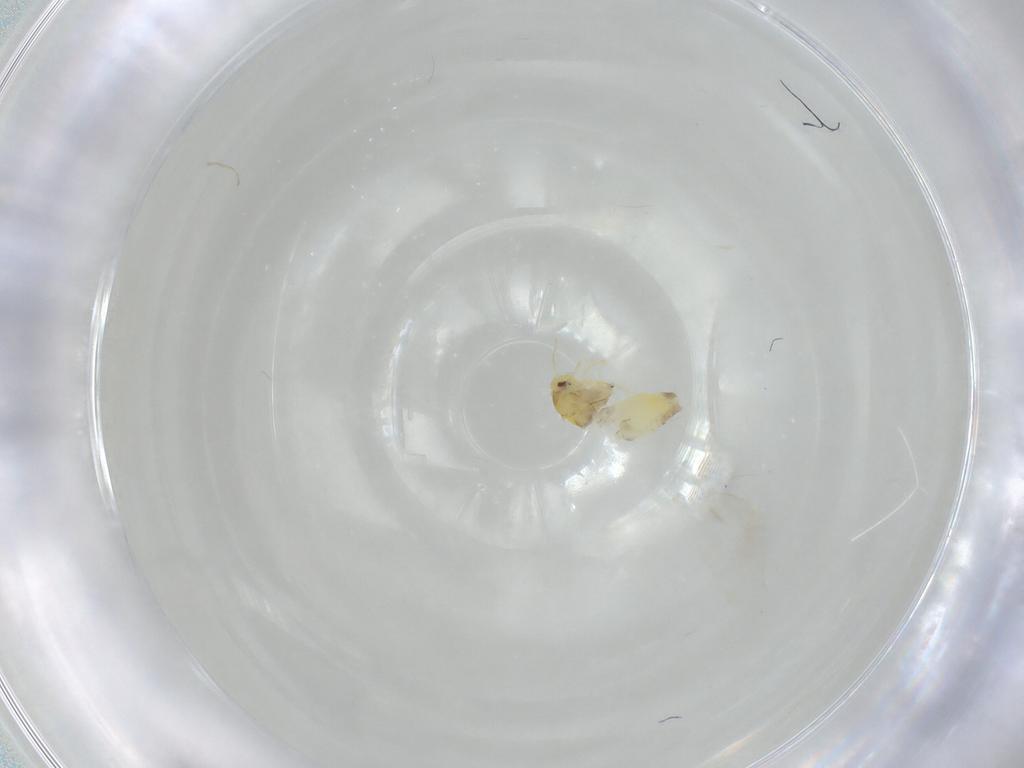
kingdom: Animalia
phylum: Arthropoda
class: Insecta
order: Hemiptera
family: Aleyrodidae
